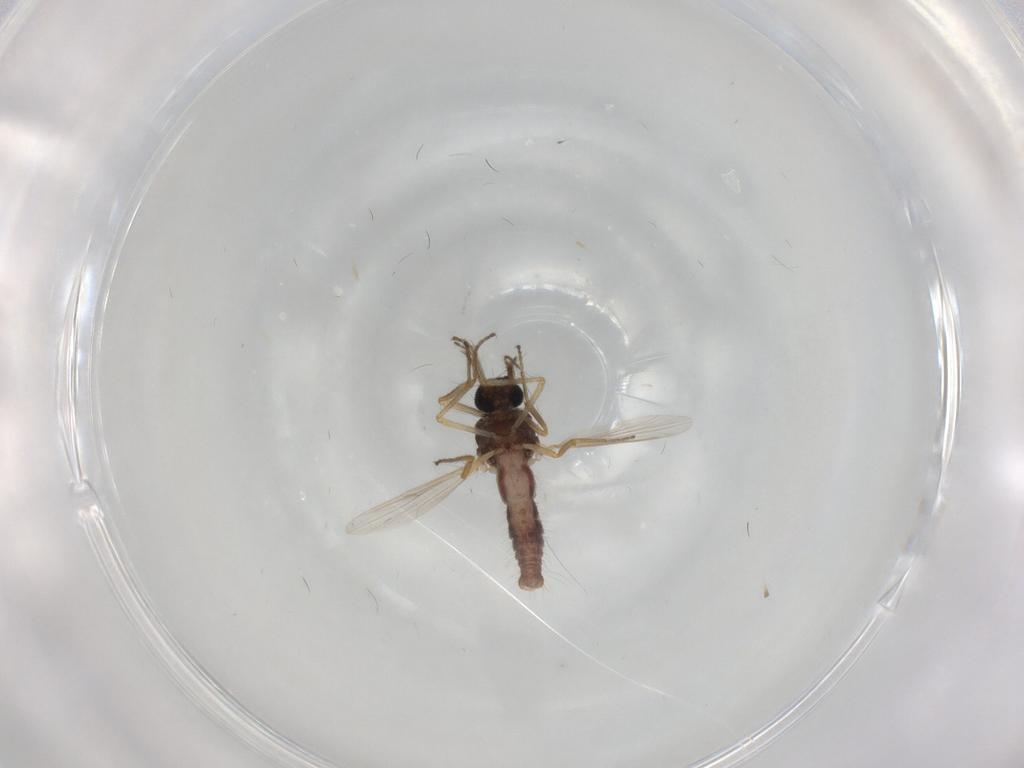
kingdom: Animalia
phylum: Arthropoda
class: Insecta
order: Diptera
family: Ceratopogonidae
